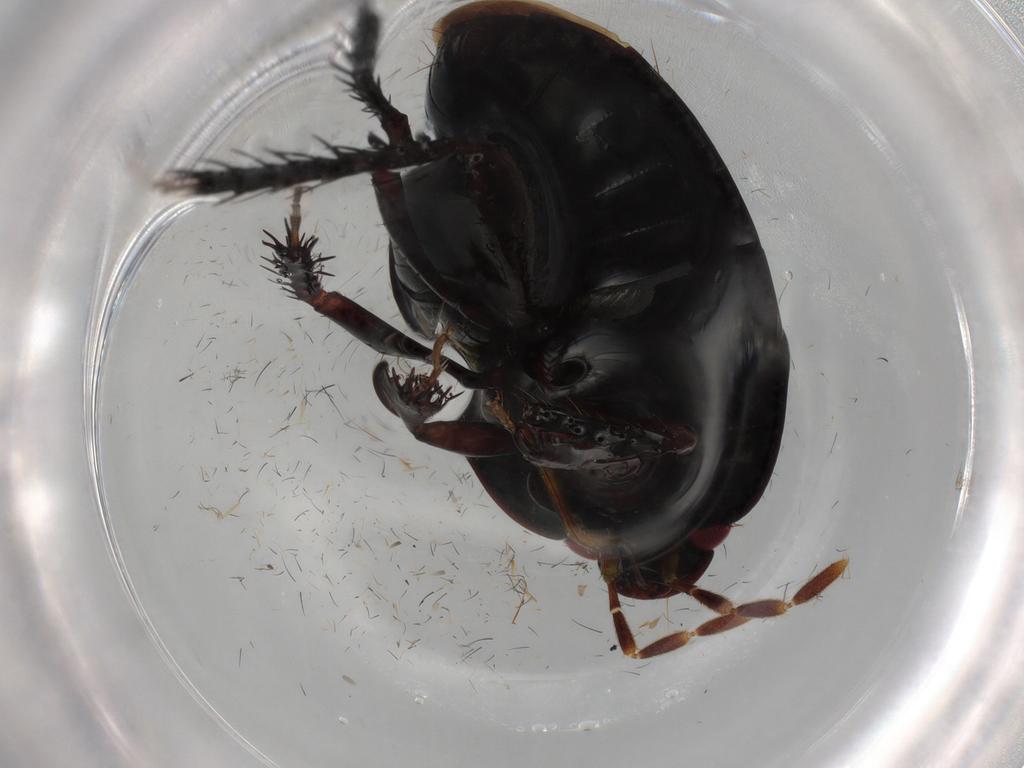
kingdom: Animalia
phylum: Arthropoda
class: Insecta
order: Hemiptera
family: Cydnidae
